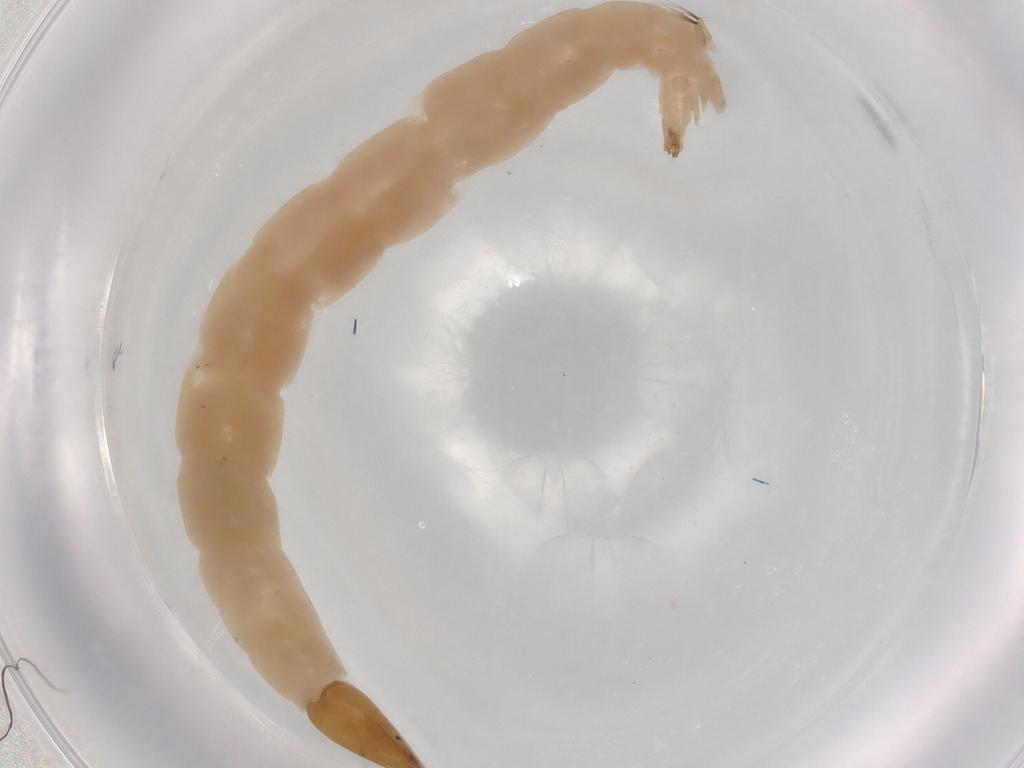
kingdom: Animalia
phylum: Arthropoda
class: Insecta
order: Diptera
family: Chironomidae
